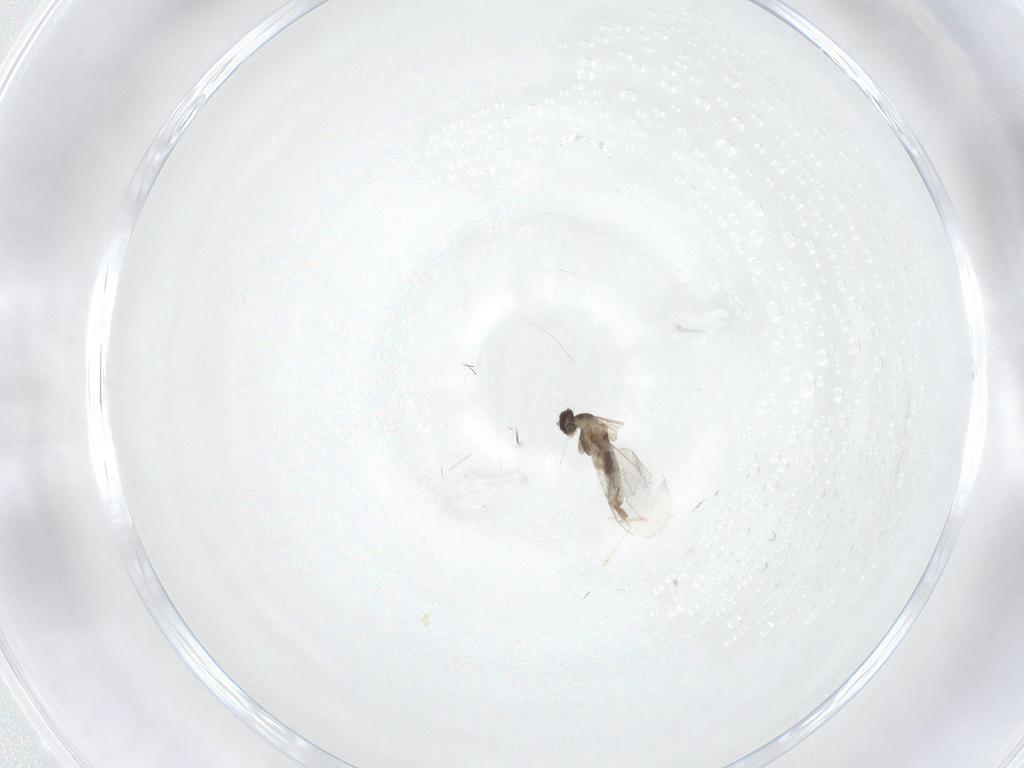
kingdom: Animalia
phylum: Arthropoda
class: Insecta
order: Diptera
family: Cecidomyiidae
